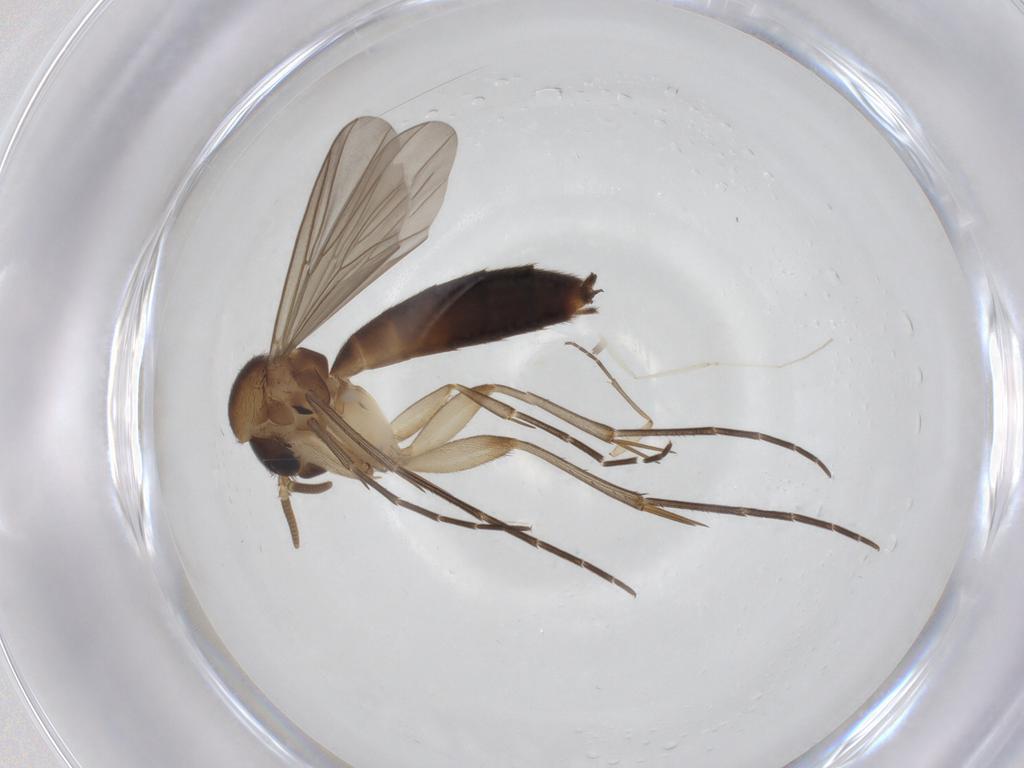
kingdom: Animalia
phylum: Arthropoda
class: Insecta
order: Diptera
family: Mycetophilidae
